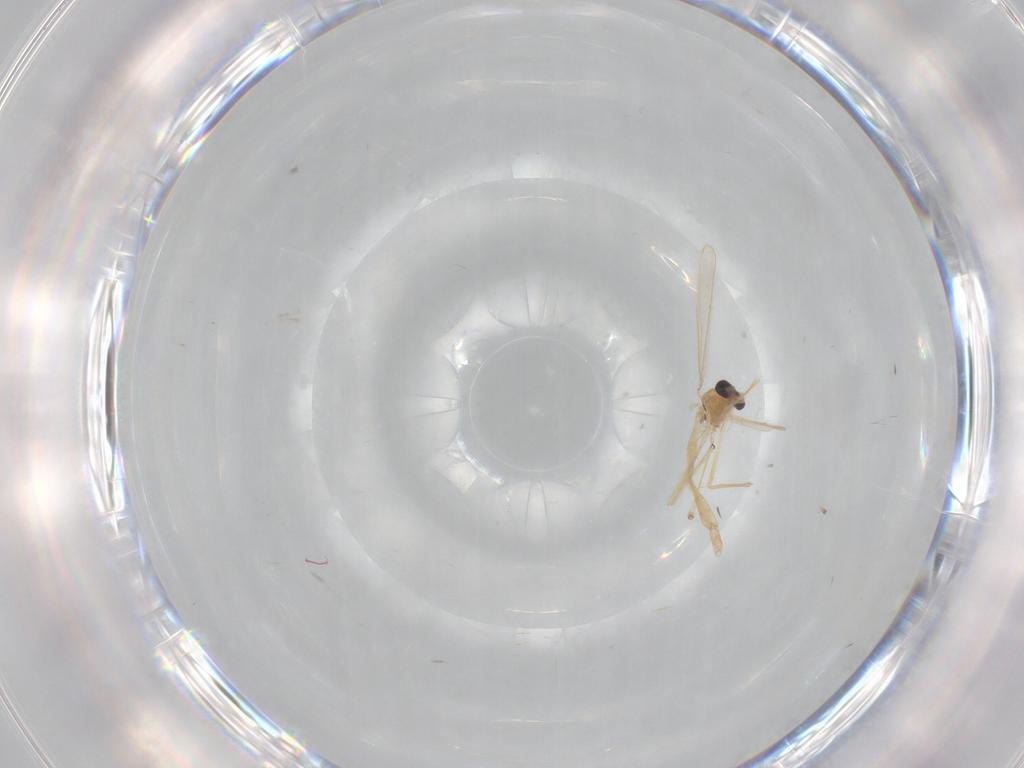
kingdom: Animalia
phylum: Arthropoda
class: Insecta
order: Diptera
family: Chironomidae
